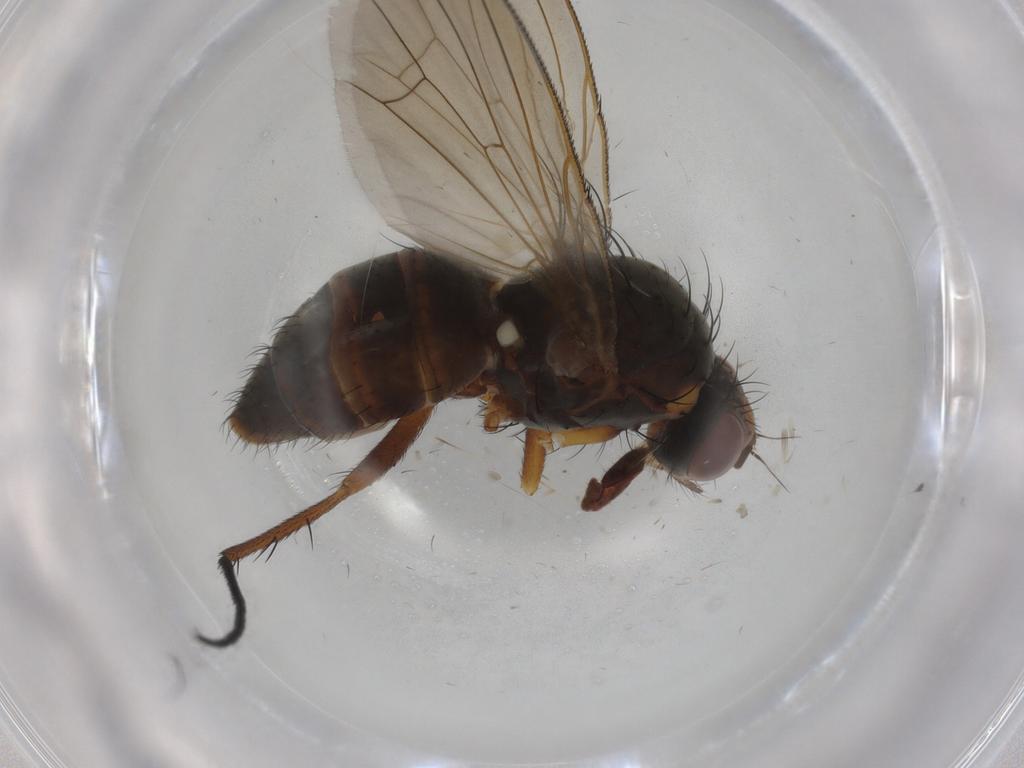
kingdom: Animalia
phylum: Arthropoda
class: Insecta
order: Diptera
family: Anthomyiidae
